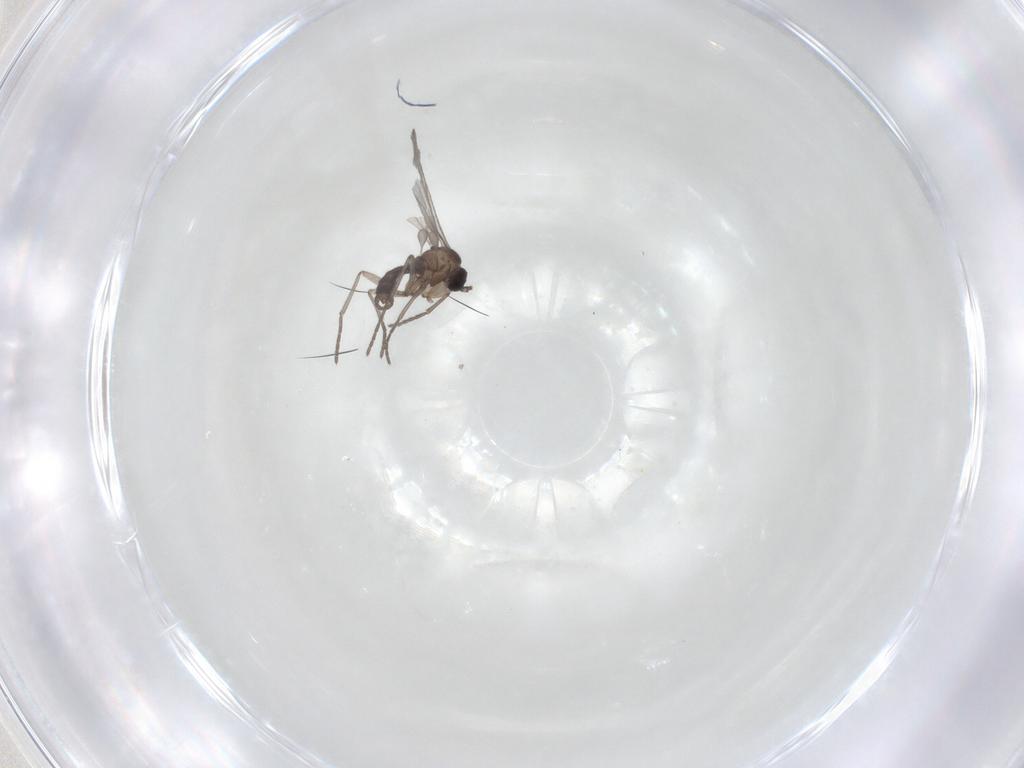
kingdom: Animalia
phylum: Arthropoda
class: Insecta
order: Diptera
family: Sciaridae
